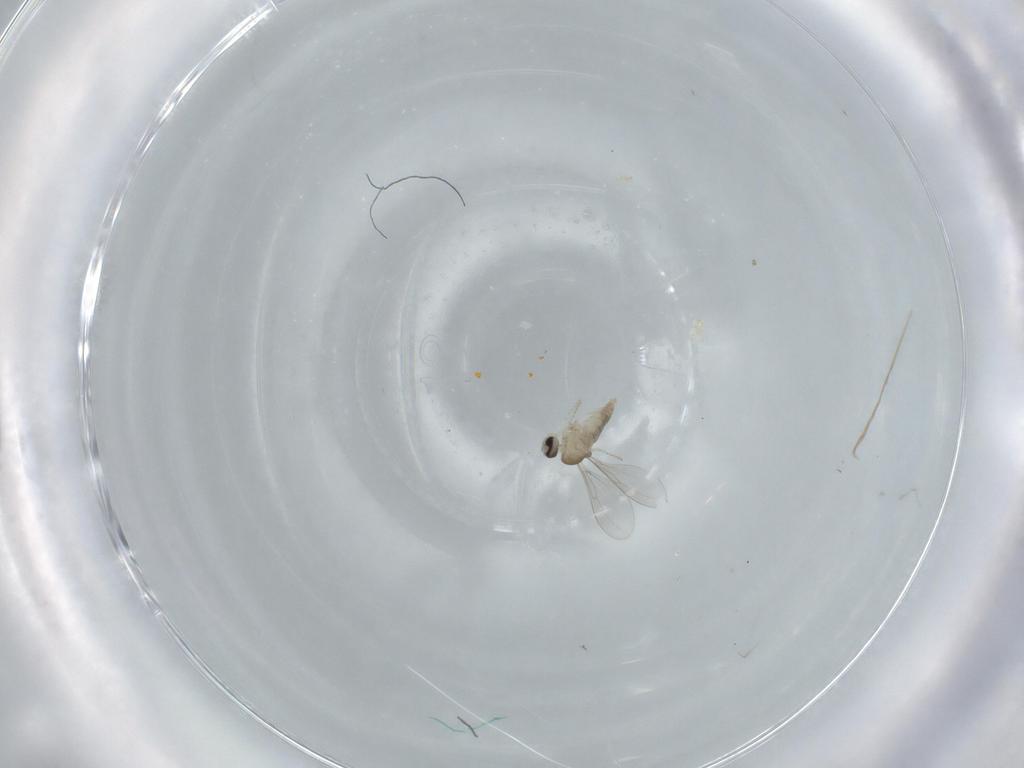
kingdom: Animalia
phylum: Arthropoda
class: Insecta
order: Diptera
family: Cecidomyiidae
